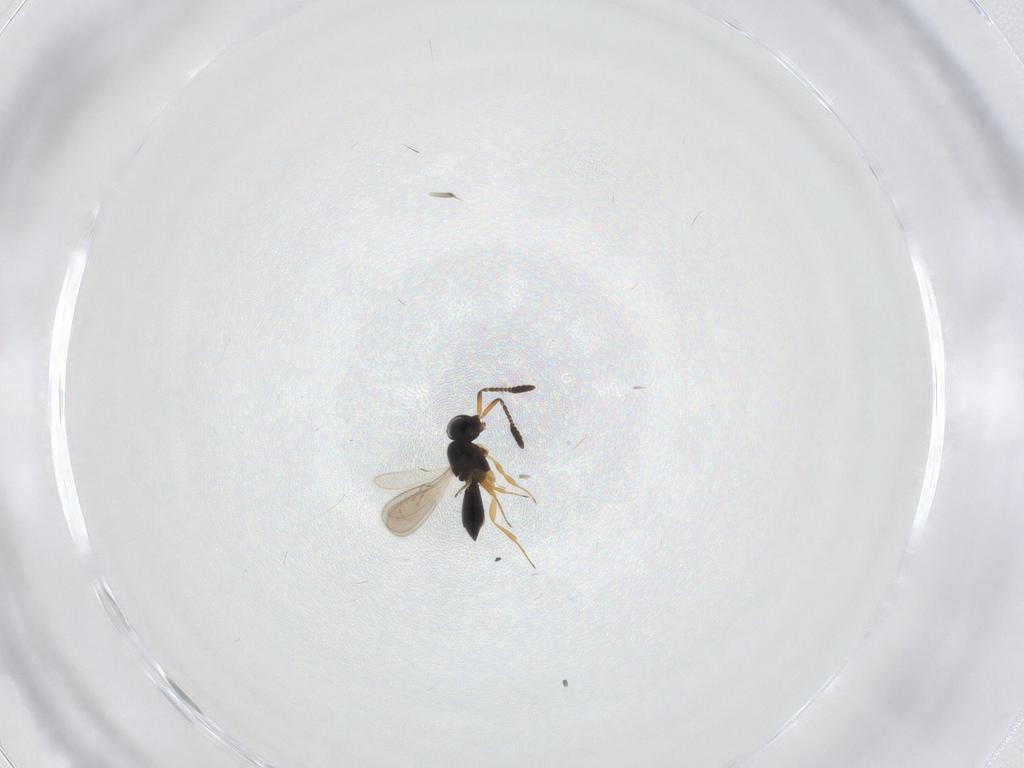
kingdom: Animalia
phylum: Arthropoda
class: Insecta
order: Hymenoptera
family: Scelionidae
